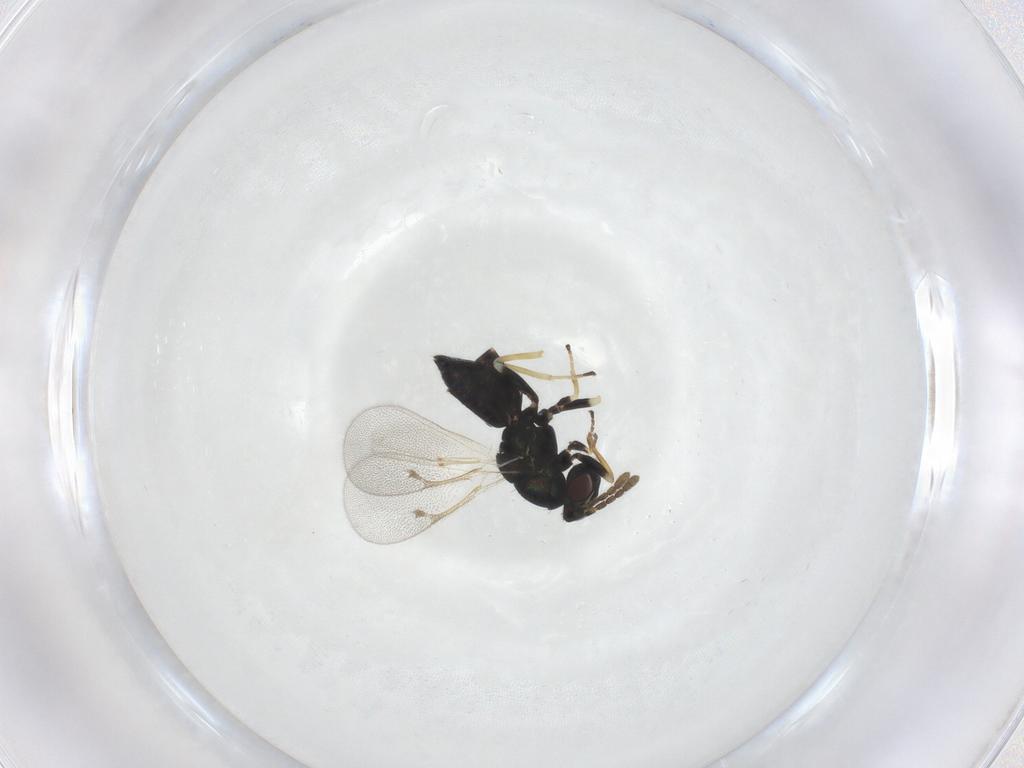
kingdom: Animalia
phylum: Arthropoda
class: Insecta
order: Hymenoptera
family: Eulophidae
